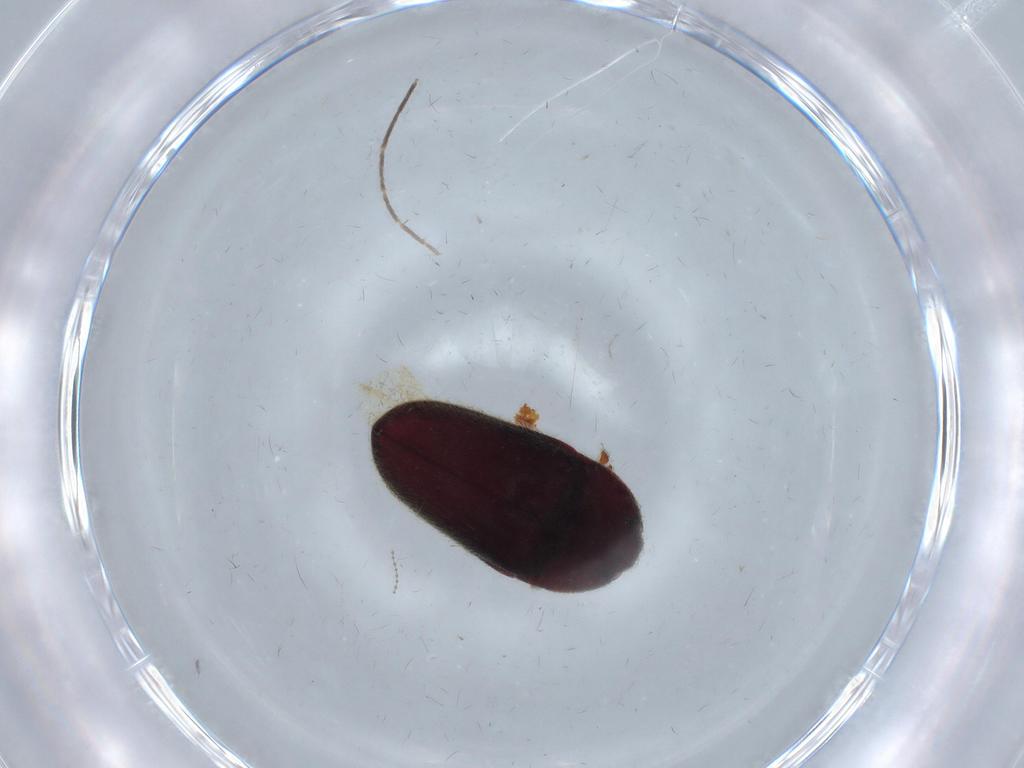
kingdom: Animalia
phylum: Arthropoda
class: Insecta
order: Coleoptera
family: Throscidae
